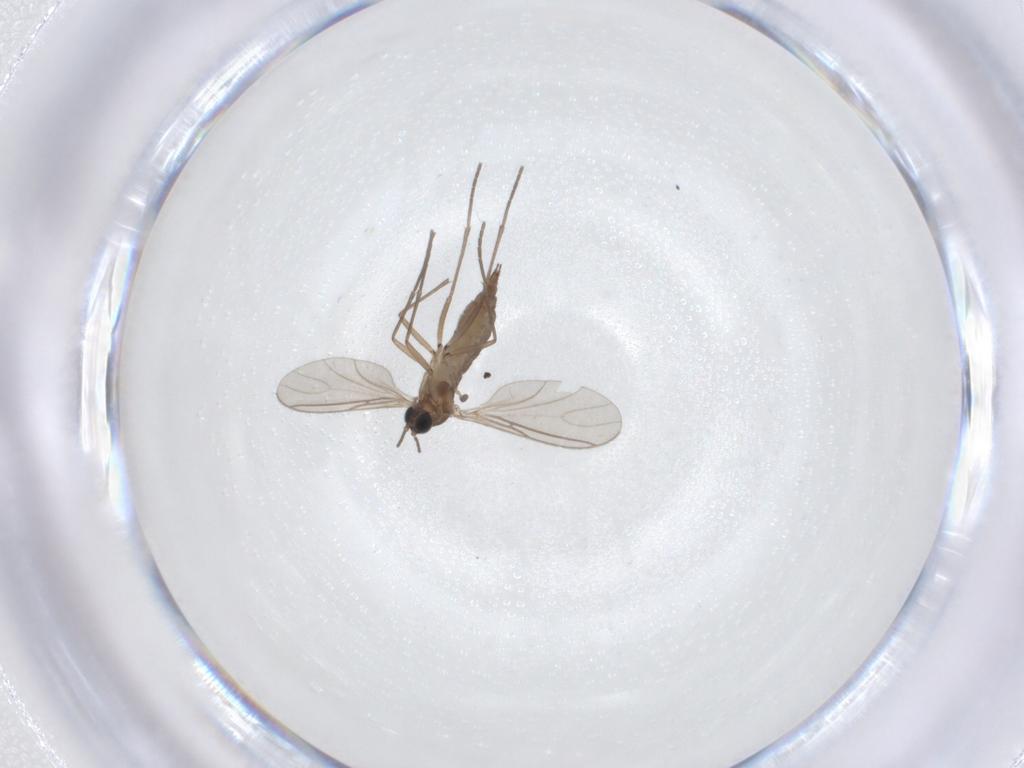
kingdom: Animalia
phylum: Arthropoda
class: Insecta
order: Diptera
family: Sciaridae
